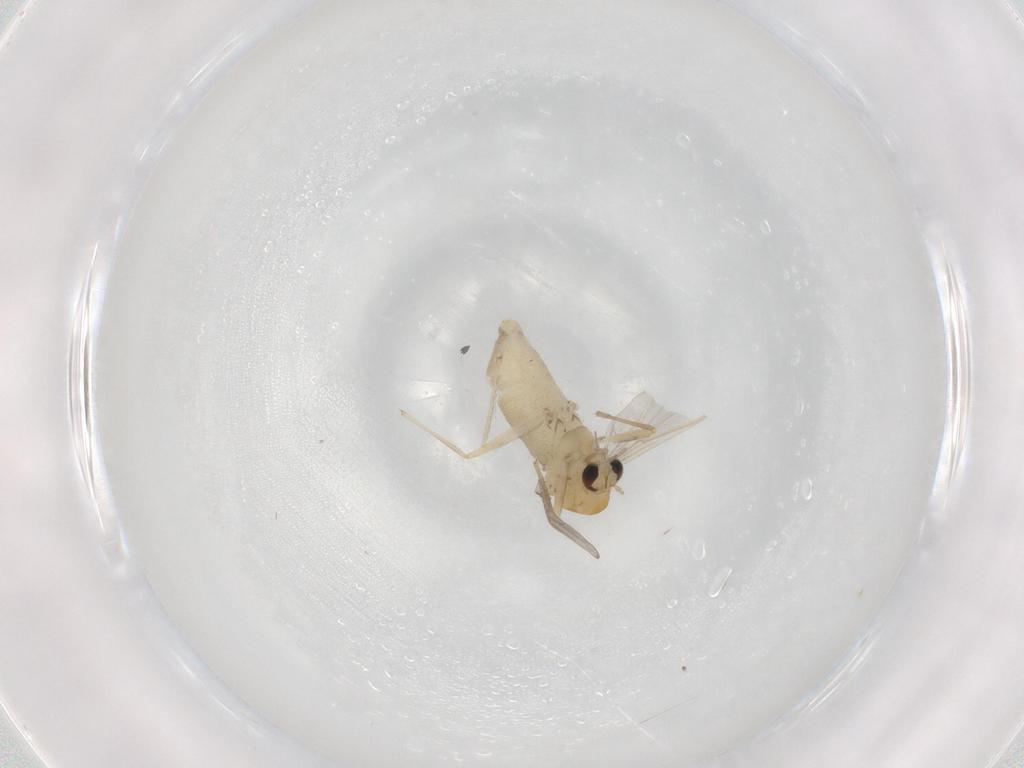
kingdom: Animalia
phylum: Arthropoda
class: Insecta
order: Diptera
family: Chironomidae
